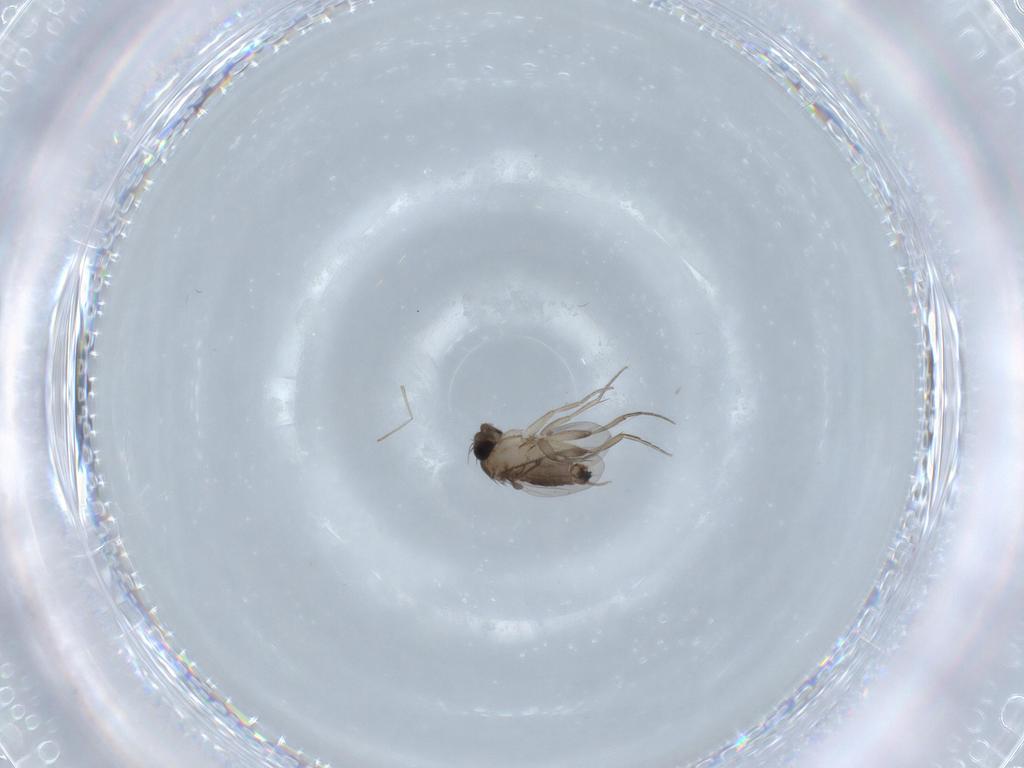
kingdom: Animalia
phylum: Arthropoda
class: Insecta
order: Diptera
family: Phoridae
